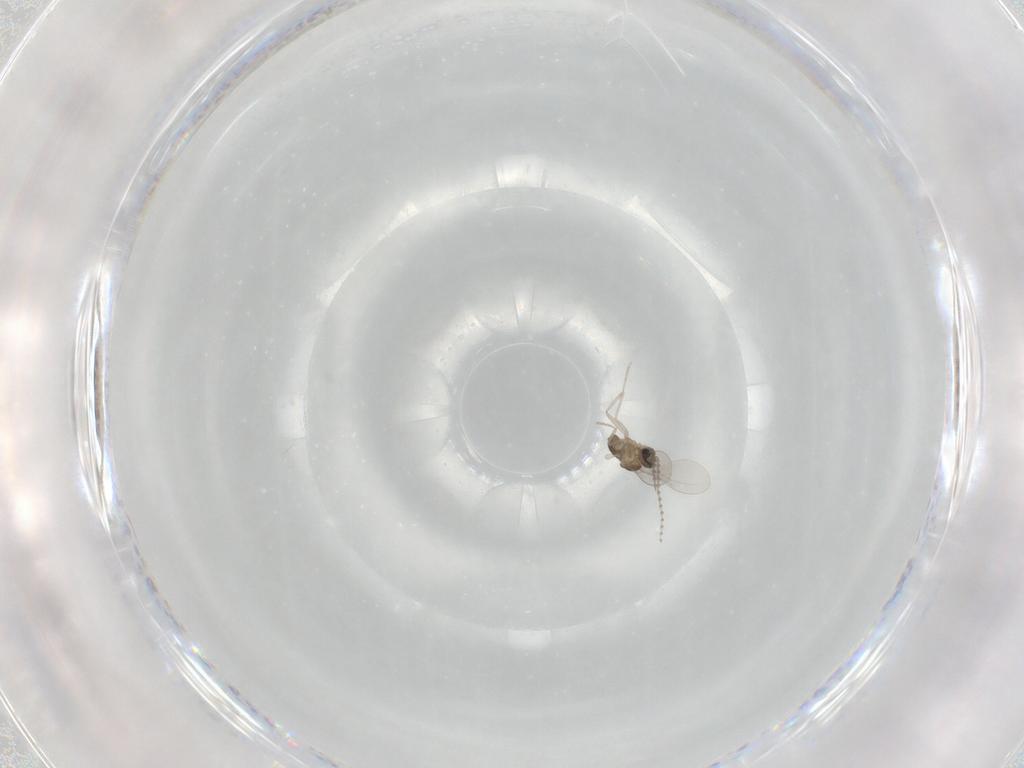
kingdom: Animalia
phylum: Arthropoda
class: Insecta
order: Diptera
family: Cecidomyiidae
